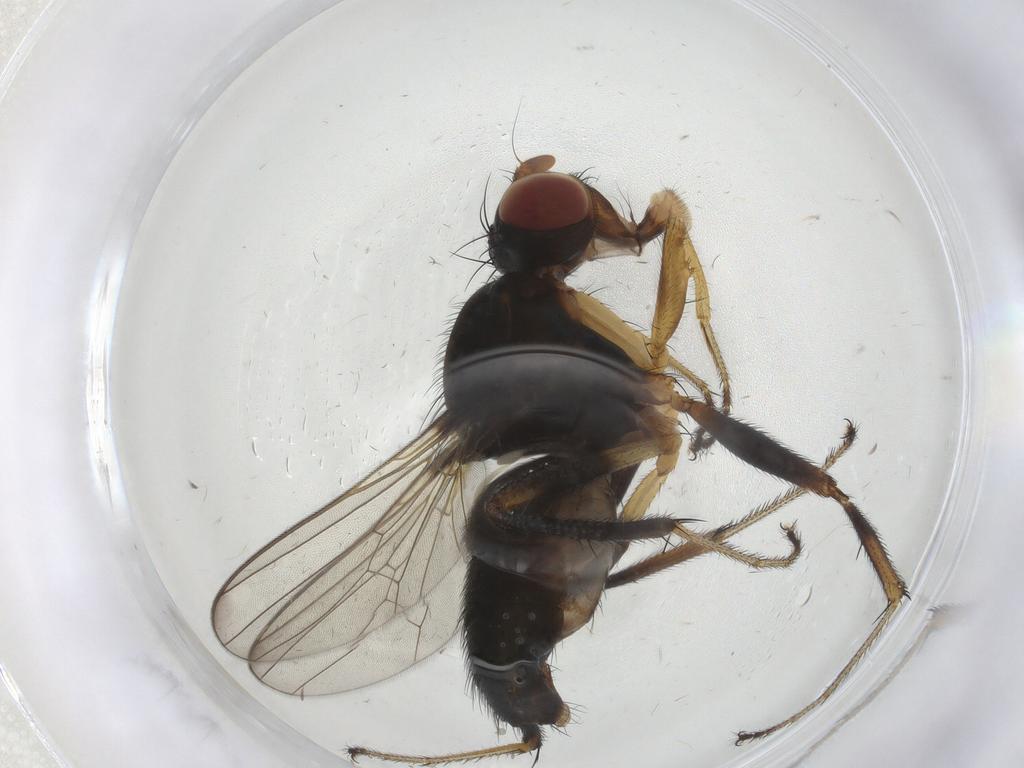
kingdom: Animalia
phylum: Arthropoda
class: Insecta
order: Diptera
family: Sepsidae
